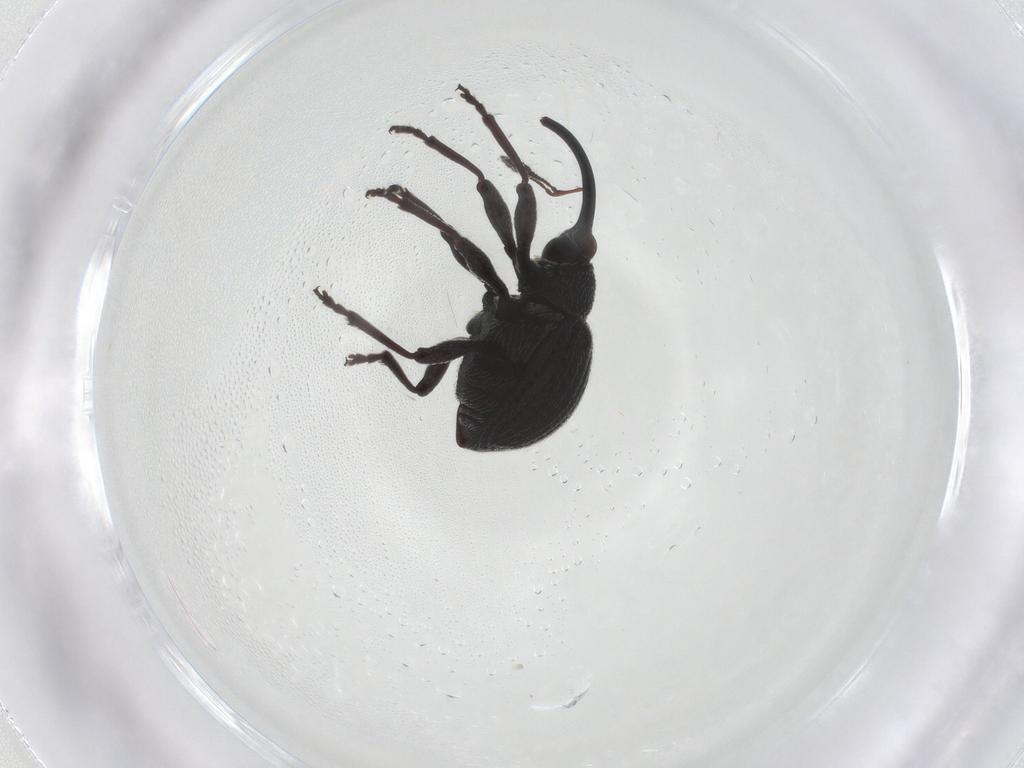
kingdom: Animalia
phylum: Arthropoda
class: Insecta
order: Coleoptera
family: Brentidae
